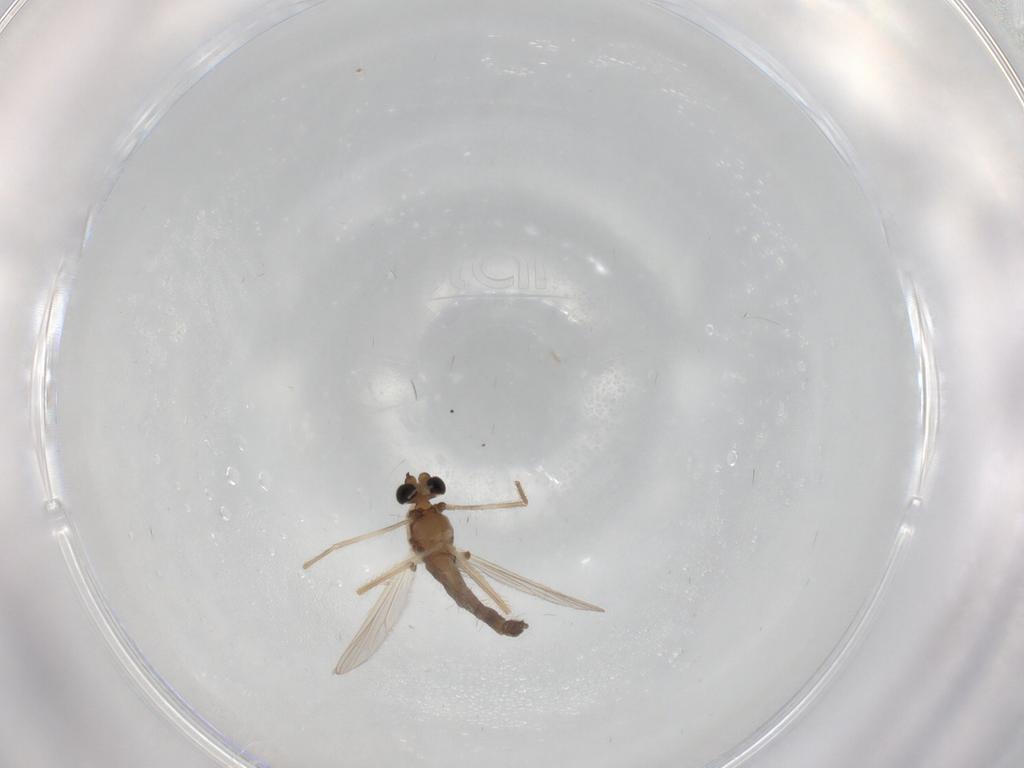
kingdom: Animalia
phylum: Arthropoda
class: Insecta
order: Diptera
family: Chironomidae
